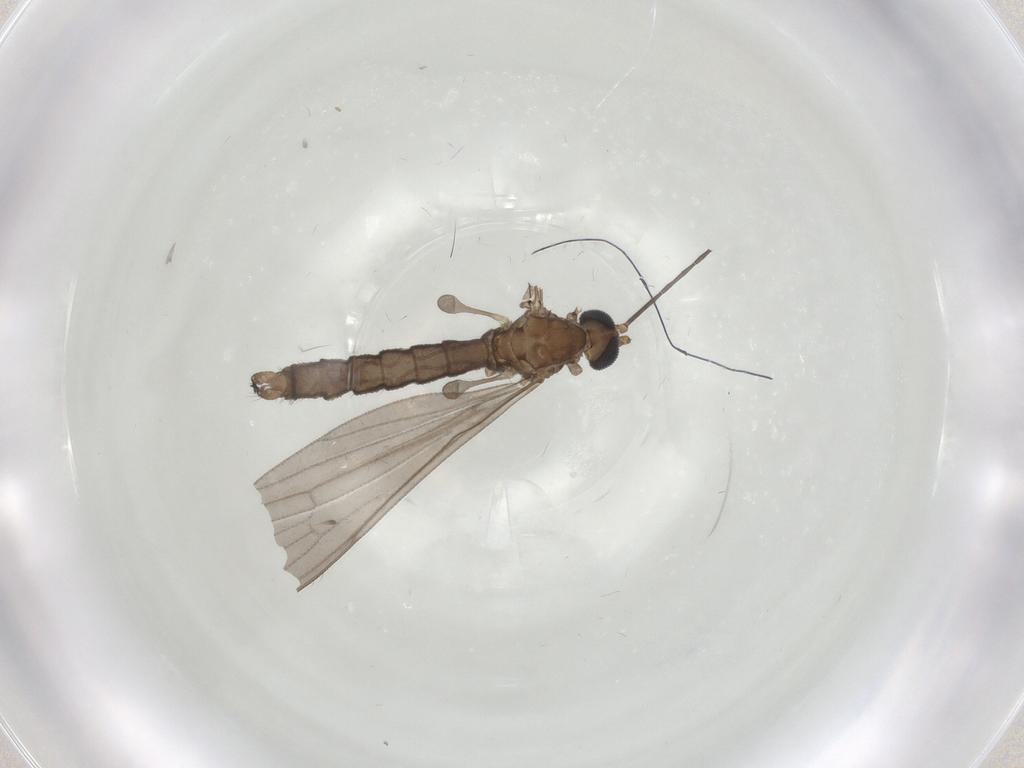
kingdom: Animalia
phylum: Arthropoda
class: Insecta
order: Diptera
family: Limoniidae
